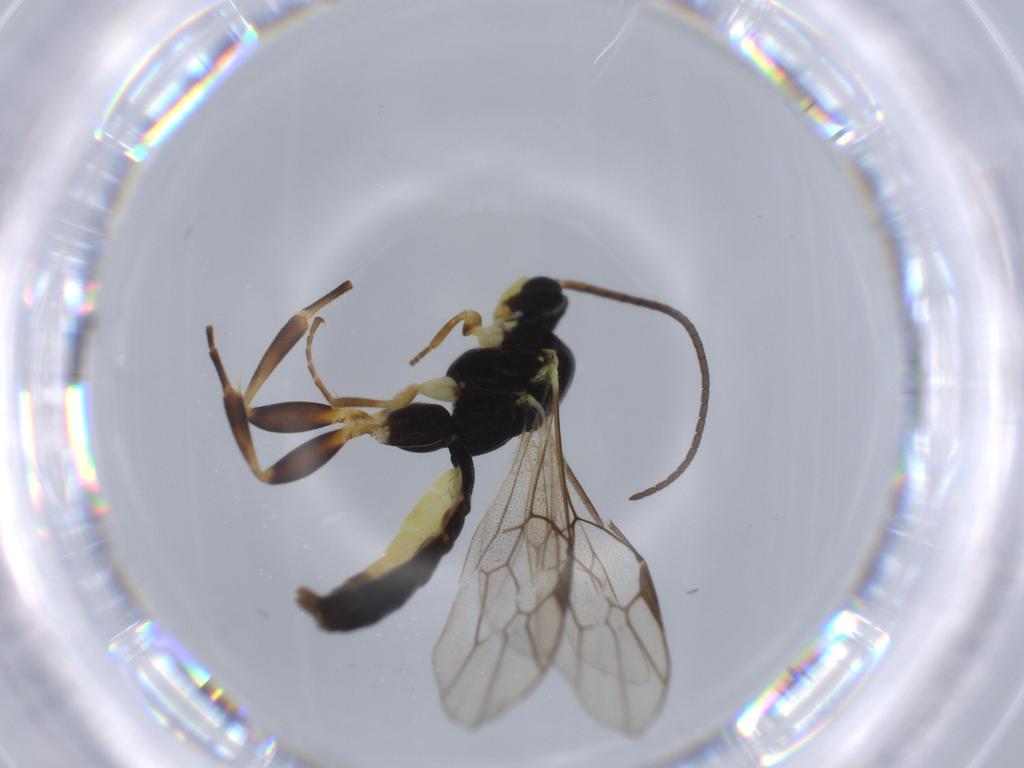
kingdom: Animalia
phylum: Arthropoda
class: Insecta
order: Hymenoptera
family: Ichneumonidae
